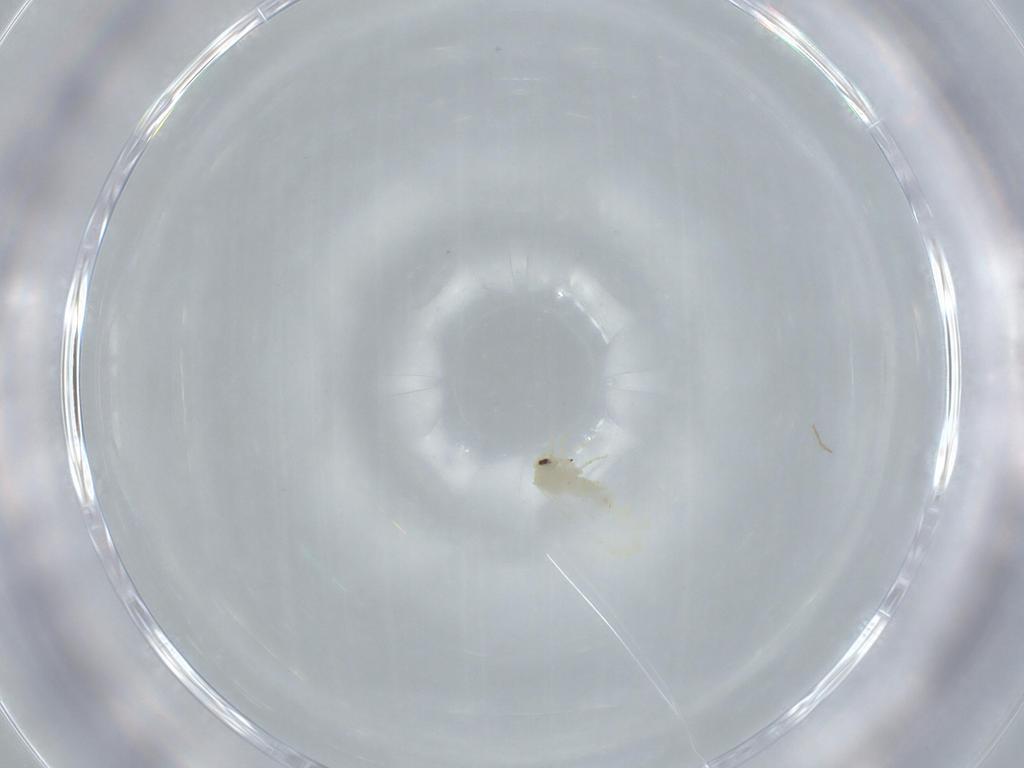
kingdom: Animalia
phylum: Arthropoda
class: Insecta
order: Hemiptera
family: Aleyrodidae
